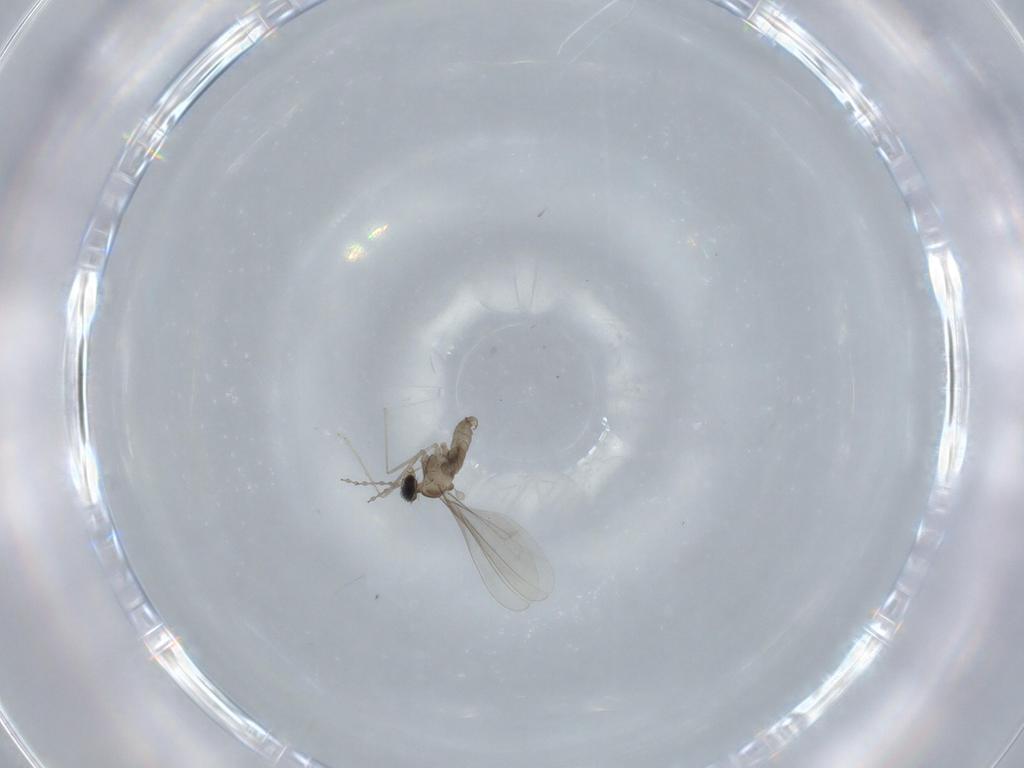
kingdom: Animalia
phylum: Arthropoda
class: Insecta
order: Diptera
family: Cecidomyiidae
